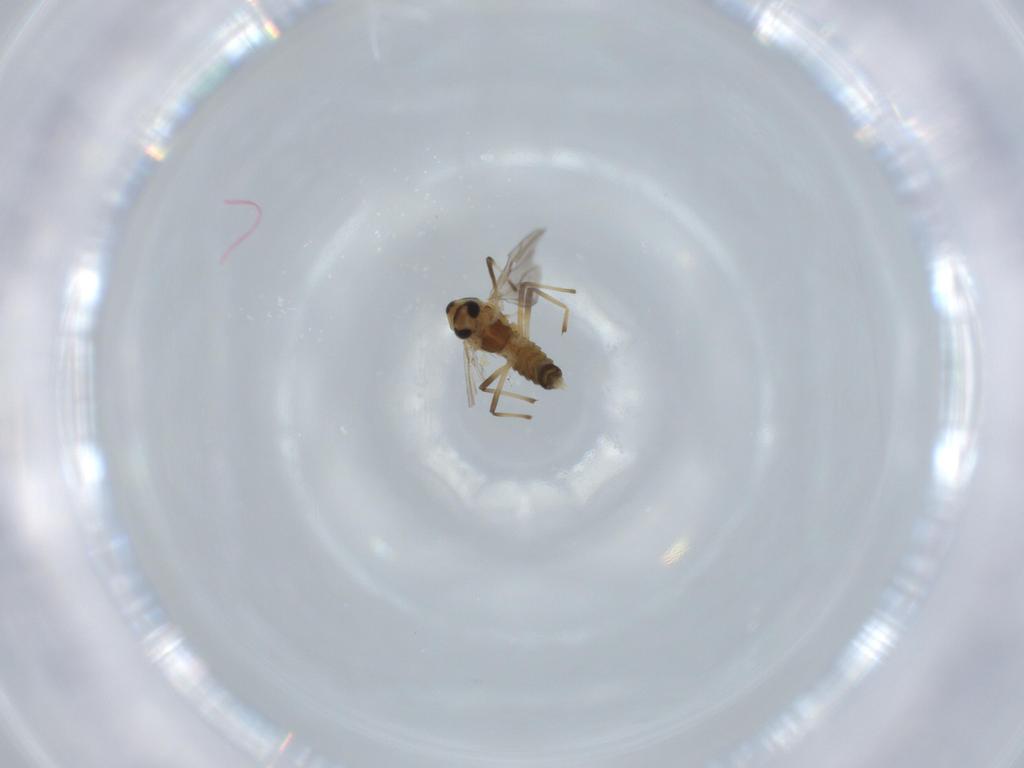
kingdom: Animalia
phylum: Arthropoda
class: Insecta
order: Diptera
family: Ceratopogonidae
